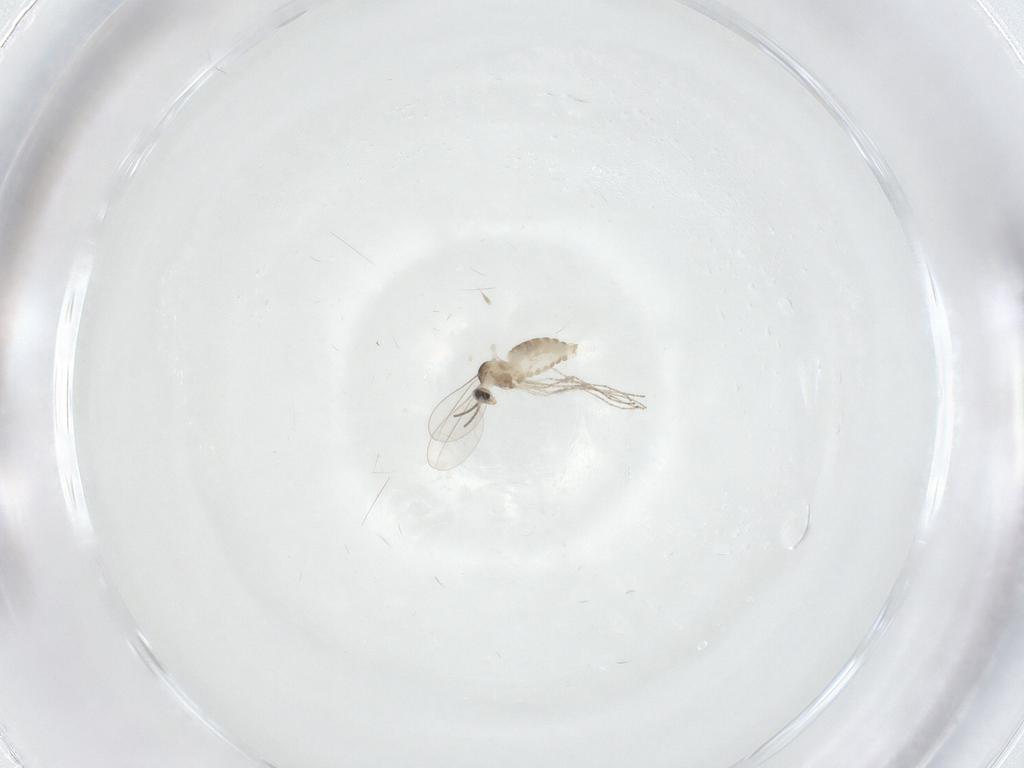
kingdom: Animalia
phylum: Arthropoda
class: Insecta
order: Diptera
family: Cecidomyiidae
